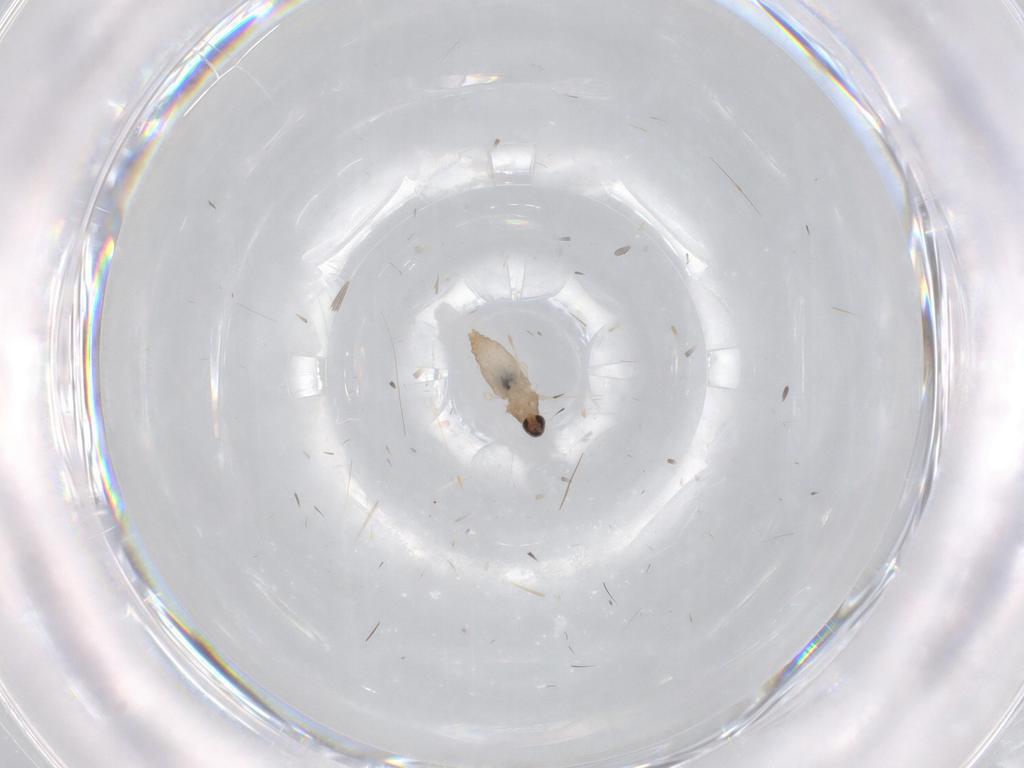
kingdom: Animalia
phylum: Arthropoda
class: Insecta
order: Diptera
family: Cecidomyiidae
